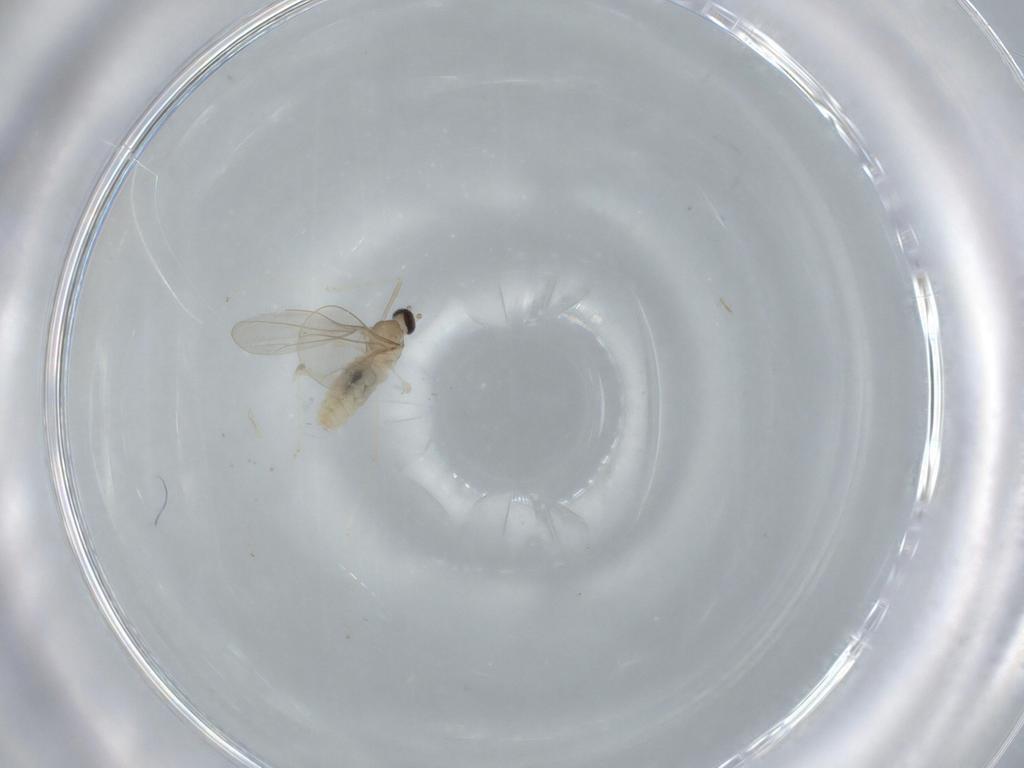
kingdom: Animalia
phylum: Arthropoda
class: Insecta
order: Diptera
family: Cecidomyiidae
